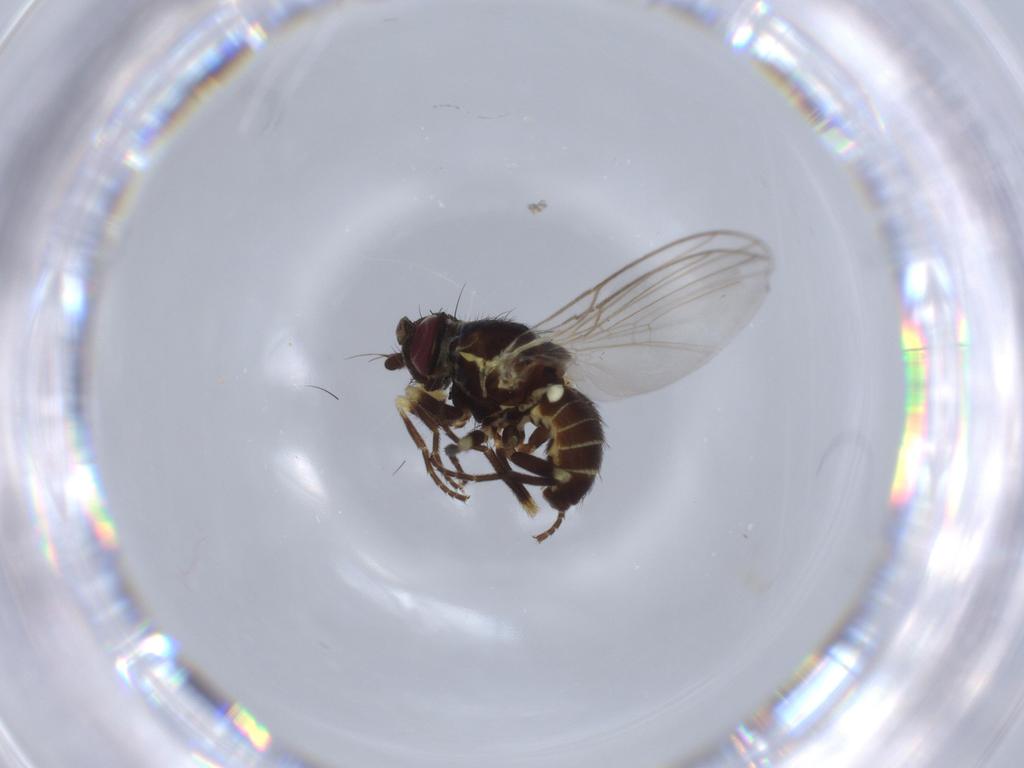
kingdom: Animalia
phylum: Arthropoda
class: Insecta
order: Diptera
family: Agromyzidae
